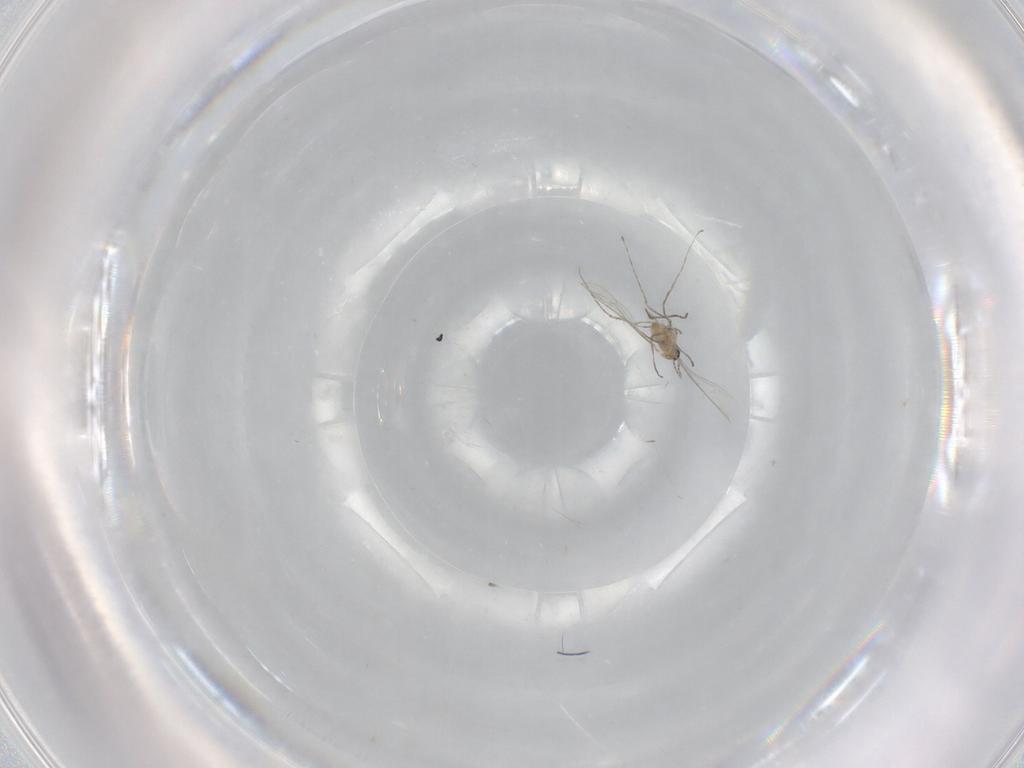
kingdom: Animalia
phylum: Arthropoda
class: Insecta
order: Diptera
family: Cecidomyiidae
